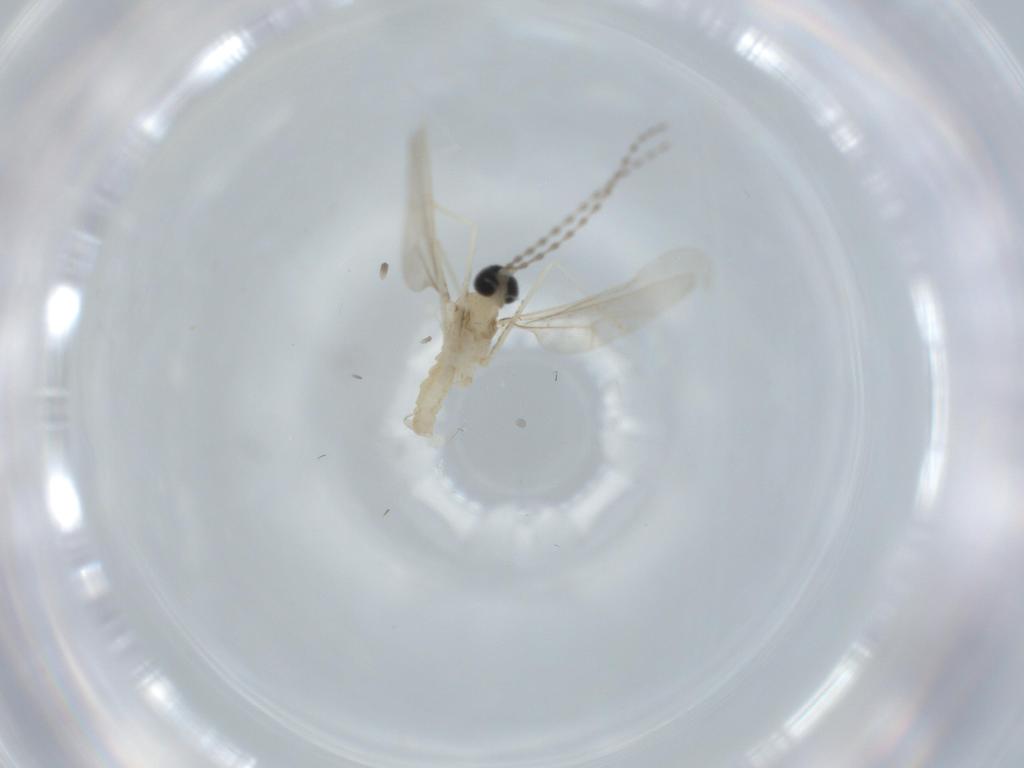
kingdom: Animalia
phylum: Arthropoda
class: Insecta
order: Diptera
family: Cecidomyiidae
